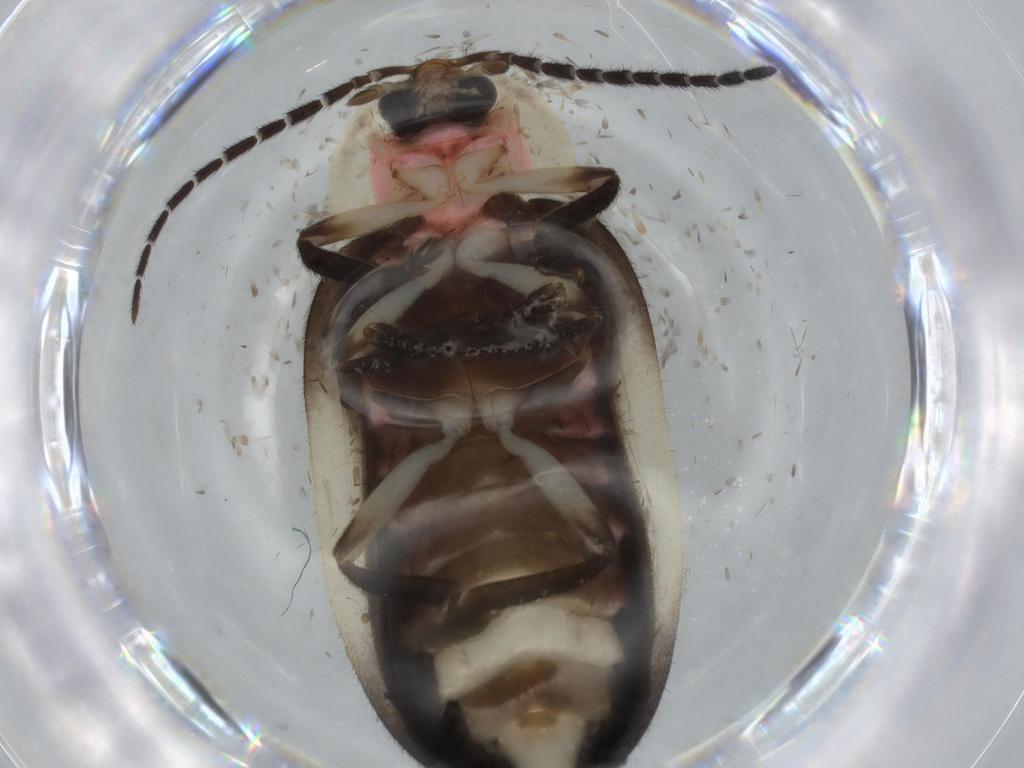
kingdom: Animalia
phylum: Arthropoda
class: Insecta
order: Coleoptera
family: Lampyridae
